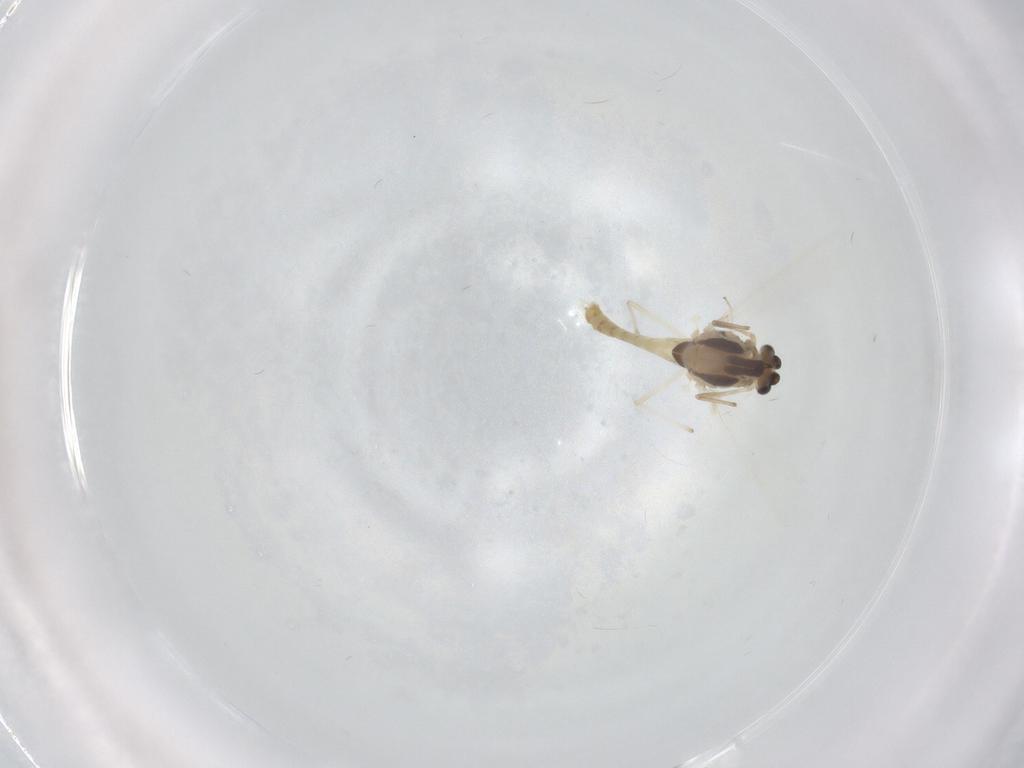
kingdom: Animalia
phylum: Arthropoda
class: Insecta
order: Diptera
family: Chironomidae
